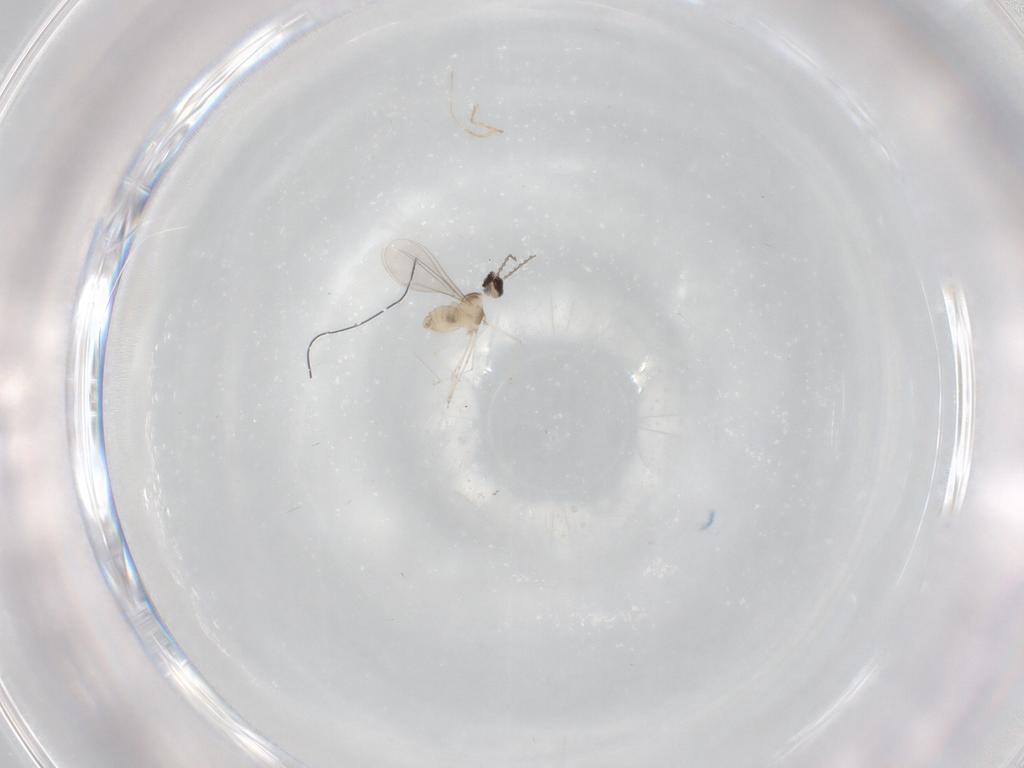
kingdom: Animalia
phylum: Arthropoda
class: Insecta
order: Diptera
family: Cecidomyiidae
